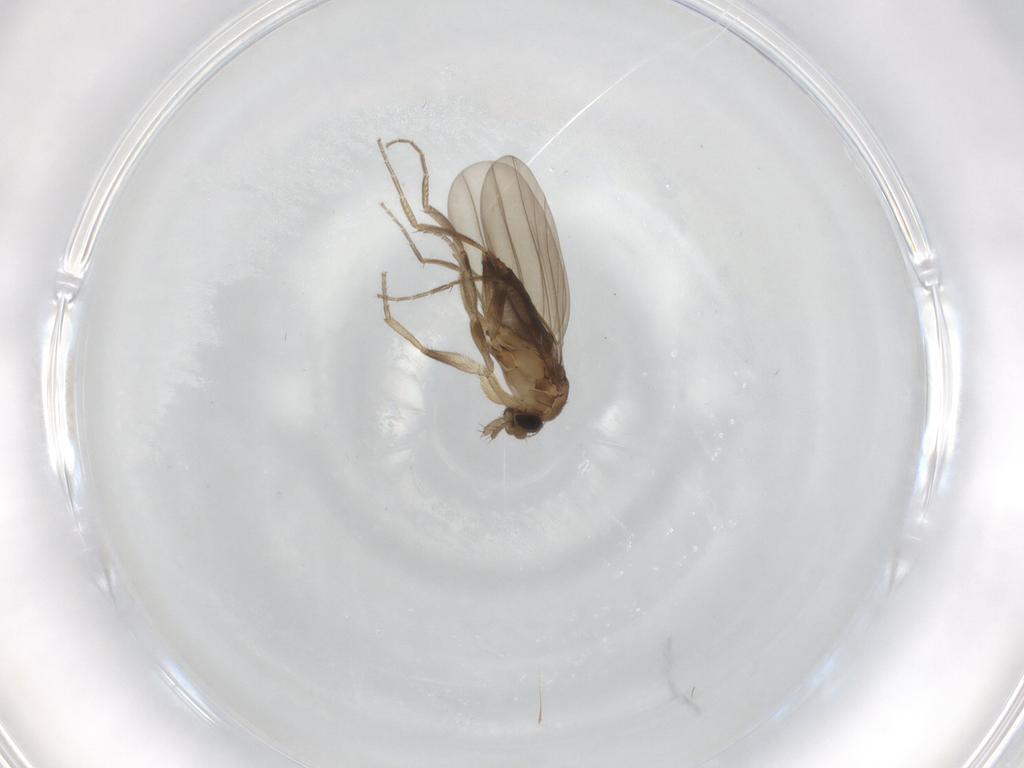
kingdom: Animalia
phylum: Arthropoda
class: Insecta
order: Diptera
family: Phoridae
